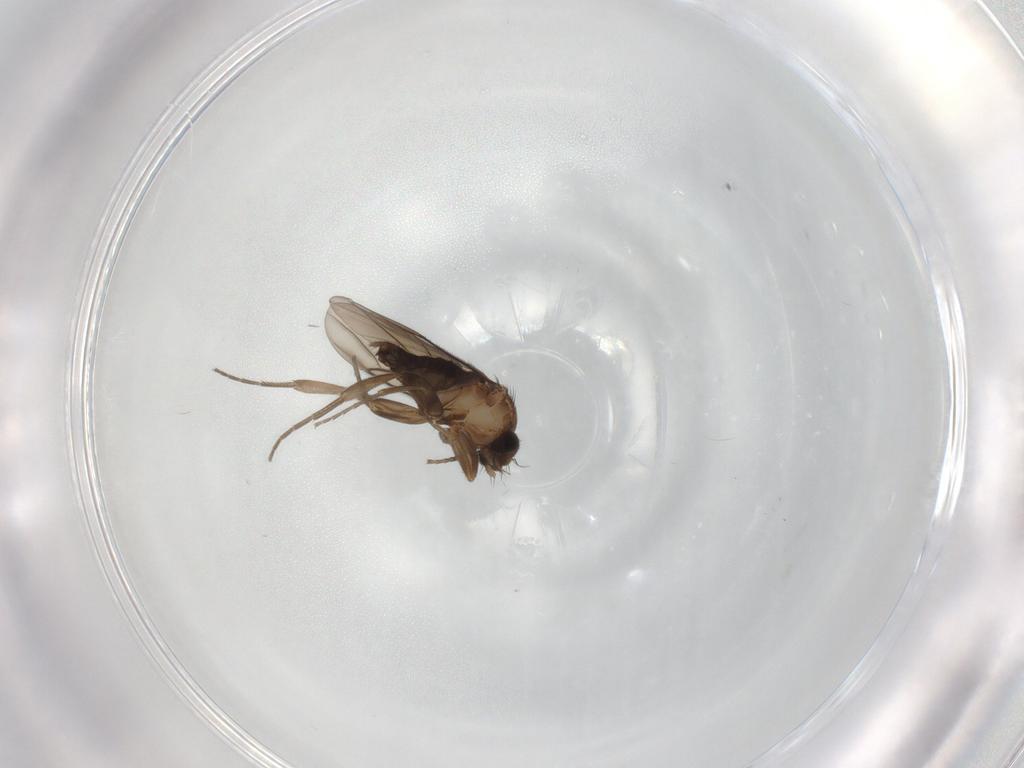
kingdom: Animalia
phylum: Arthropoda
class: Insecta
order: Diptera
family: Phoridae
